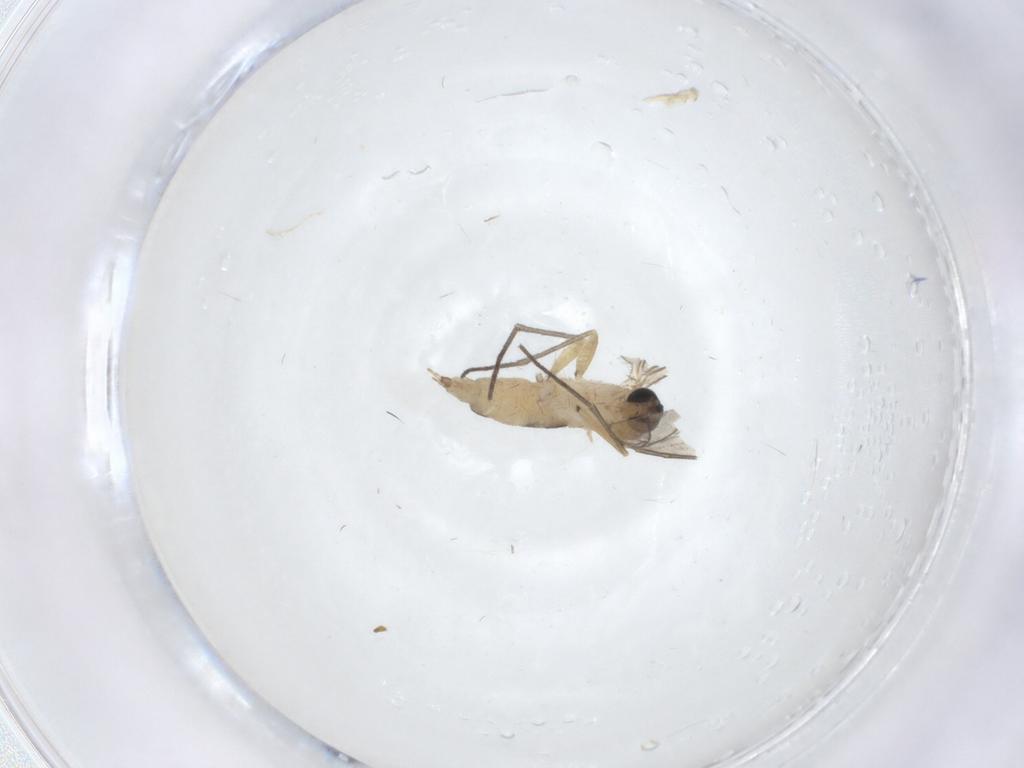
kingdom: Animalia
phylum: Arthropoda
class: Insecta
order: Diptera
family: Sciaridae
